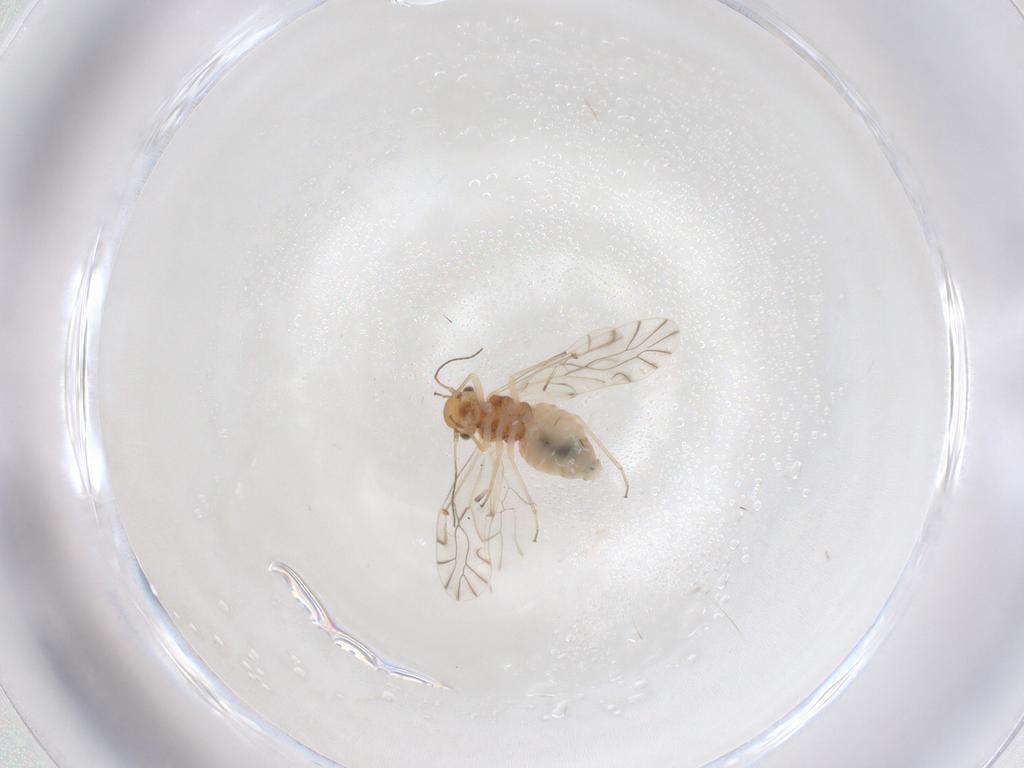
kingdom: Animalia
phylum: Arthropoda
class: Insecta
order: Psocodea
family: Lachesillidae
